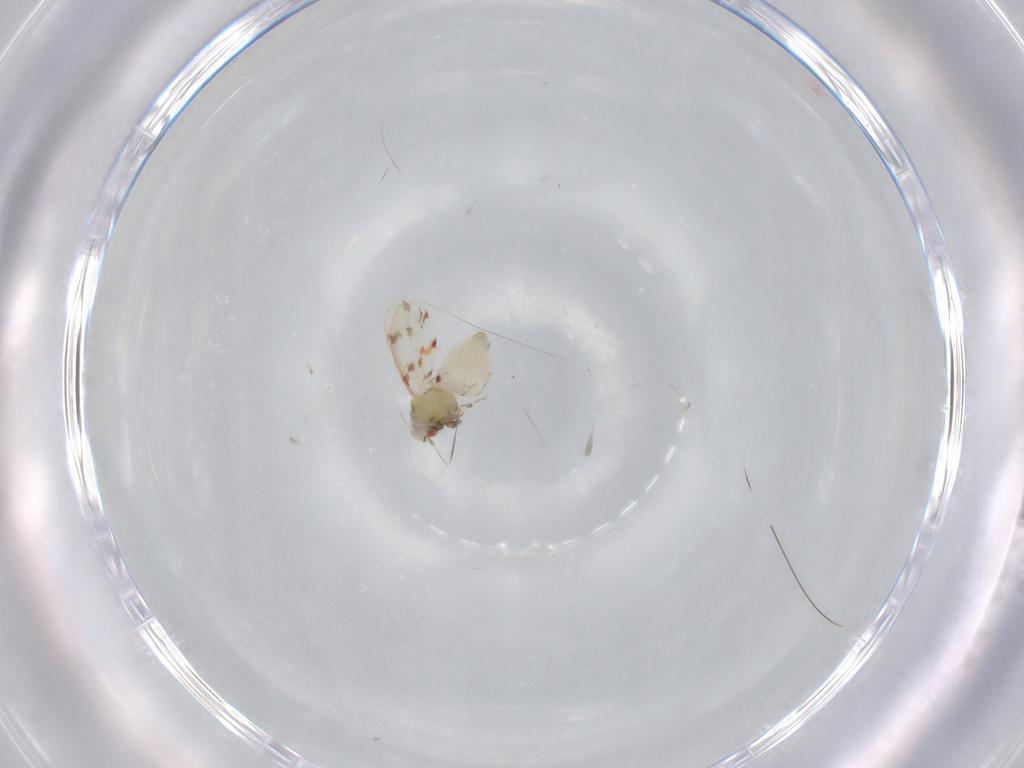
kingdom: Animalia
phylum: Arthropoda
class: Insecta
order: Hemiptera
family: Aleyrodidae
